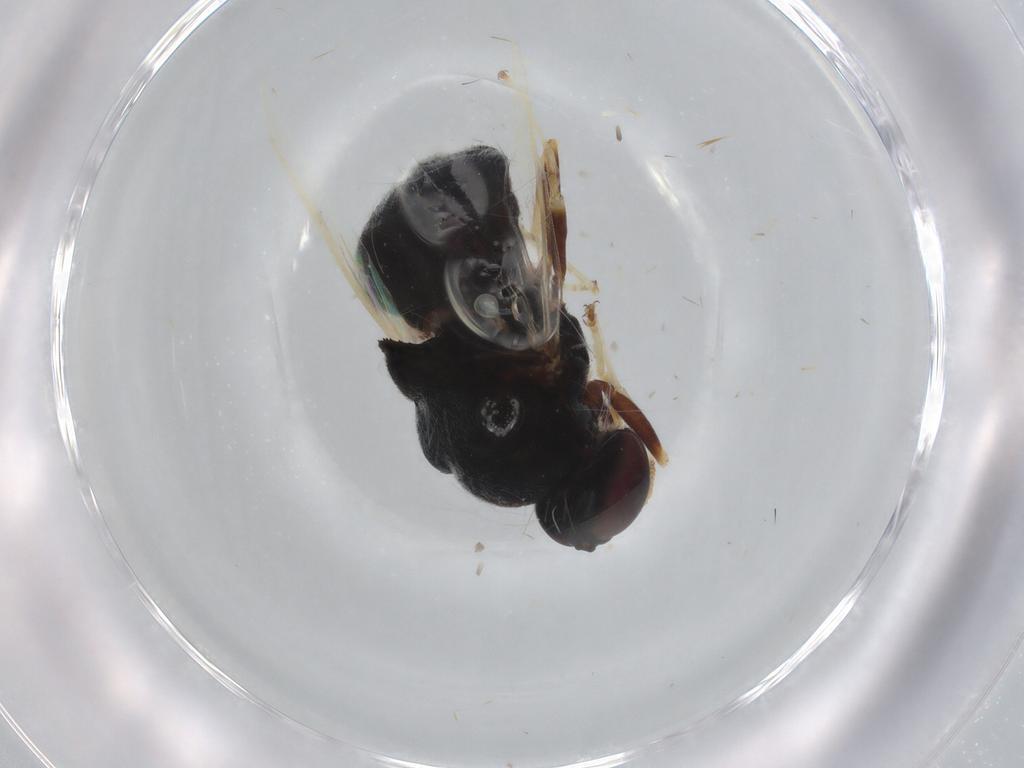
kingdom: Animalia
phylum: Arthropoda
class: Insecta
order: Diptera
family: Stratiomyidae
